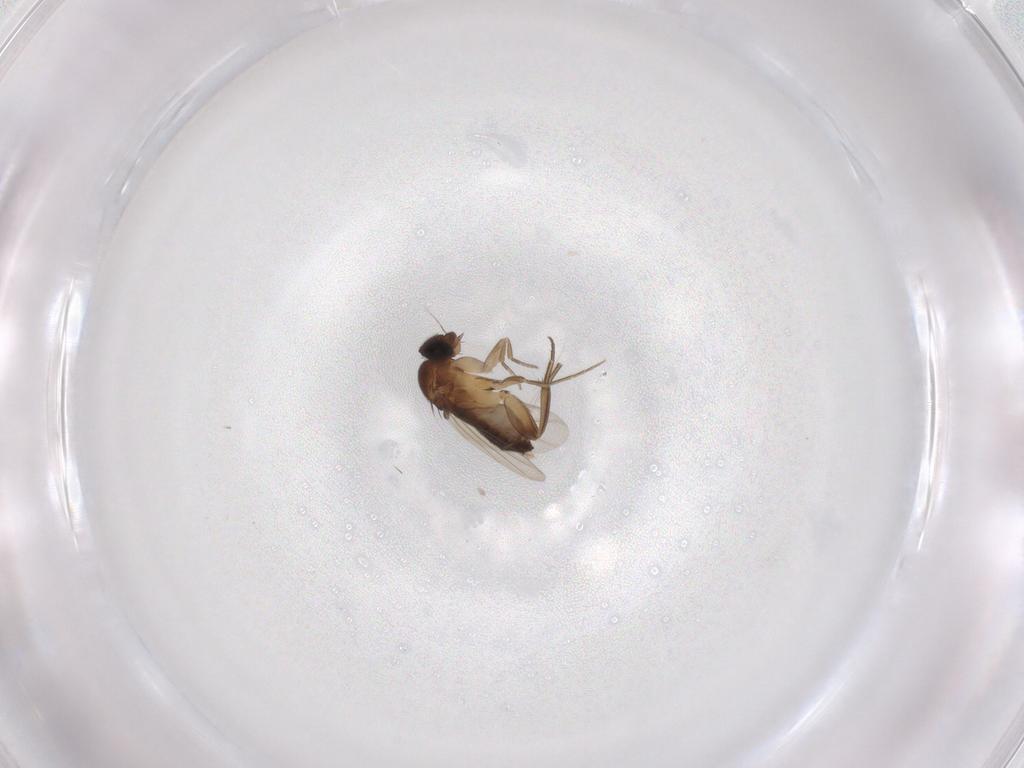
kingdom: Animalia
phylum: Arthropoda
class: Insecta
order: Diptera
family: Phoridae
